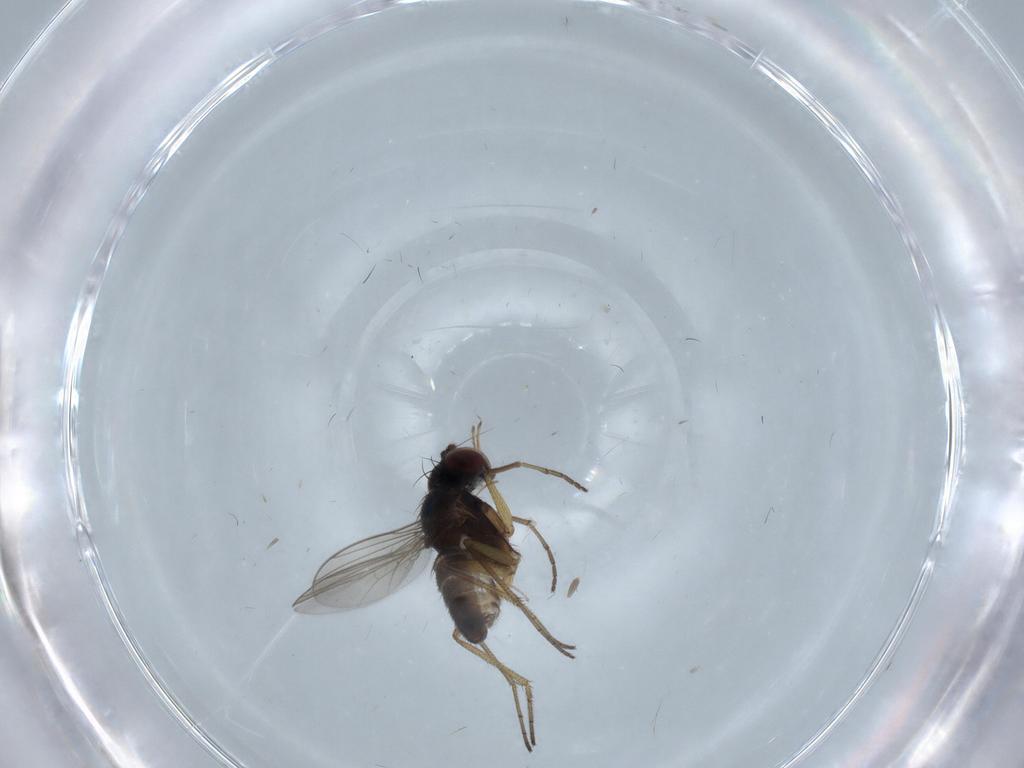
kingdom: Animalia
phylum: Arthropoda
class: Insecta
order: Diptera
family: Dolichopodidae
